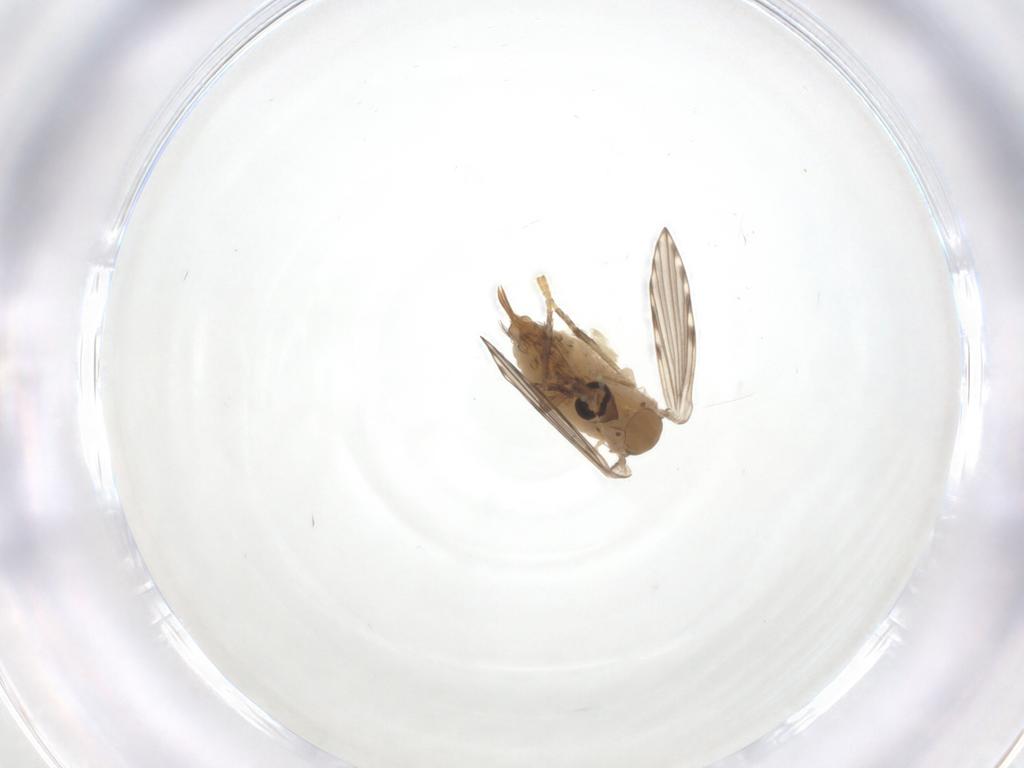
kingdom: Animalia
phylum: Arthropoda
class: Insecta
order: Diptera
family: Psychodidae
